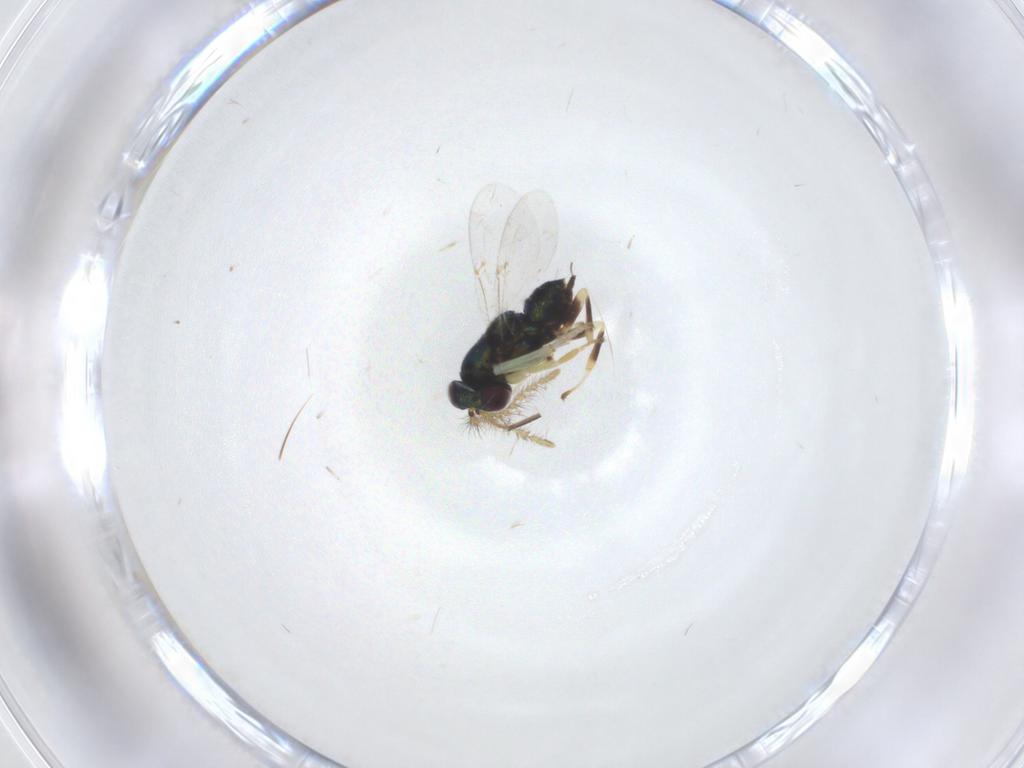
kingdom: Animalia
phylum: Arthropoda
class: Insecta
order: Hymenoptera
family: Bethylidae
